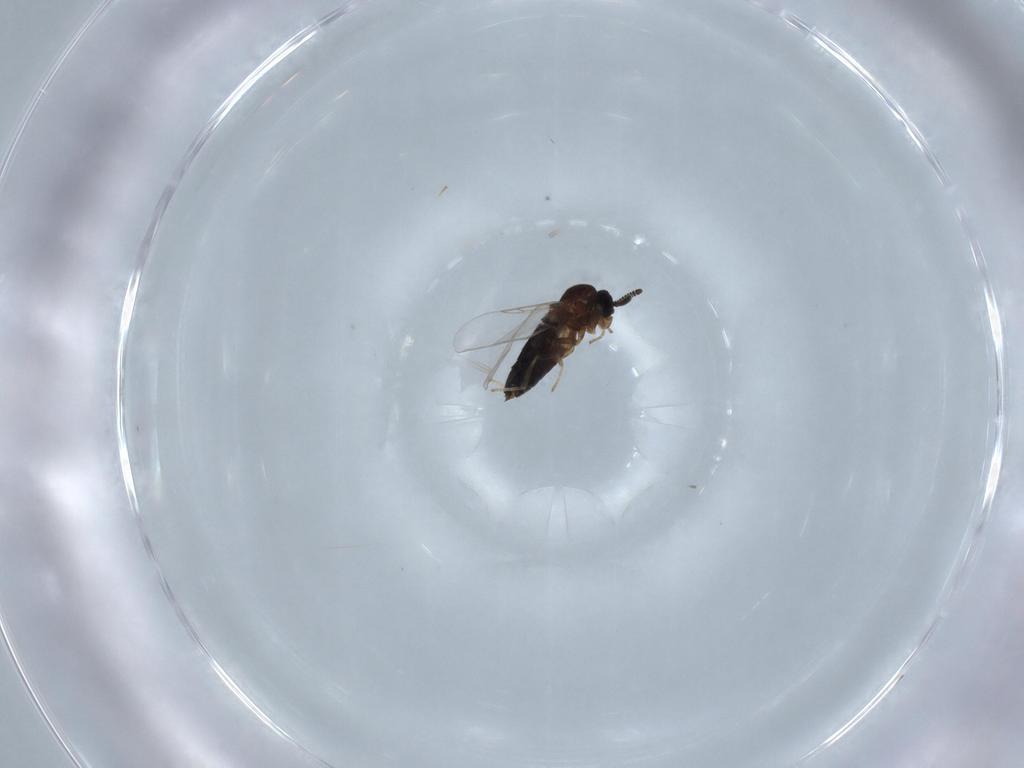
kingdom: Animalia
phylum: Arthropoda
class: Insecta
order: Diptera
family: Scatopsidae
